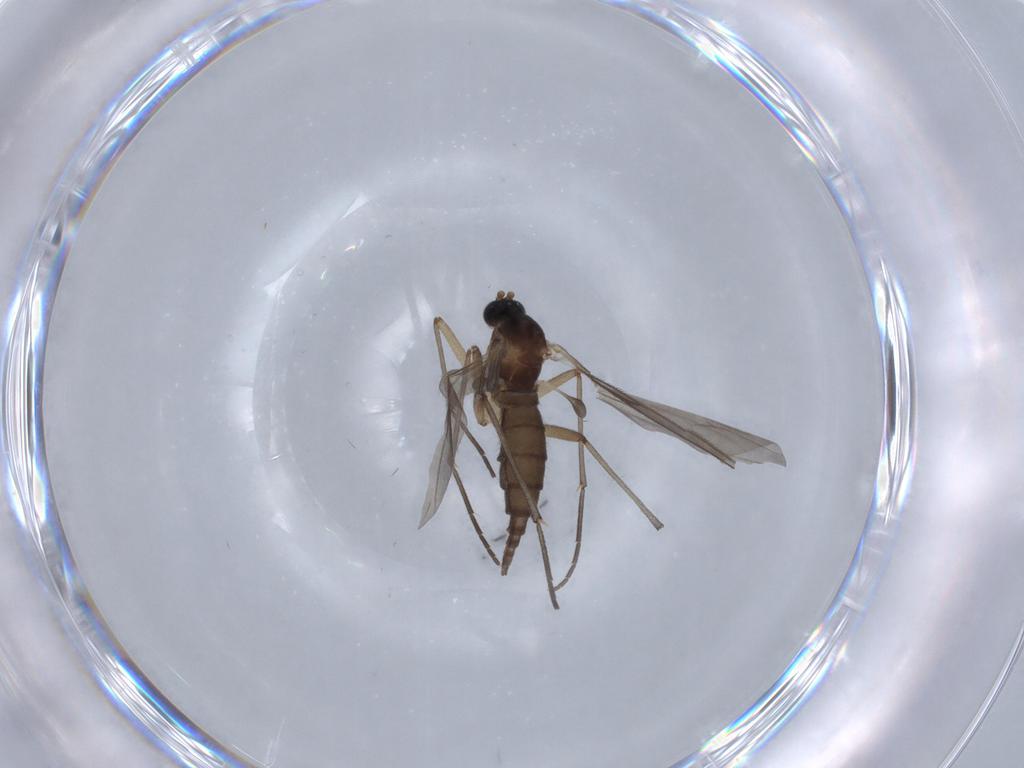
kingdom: Animalia
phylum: Arthropoda
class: Insecta
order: Diptera
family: Sciaridae
